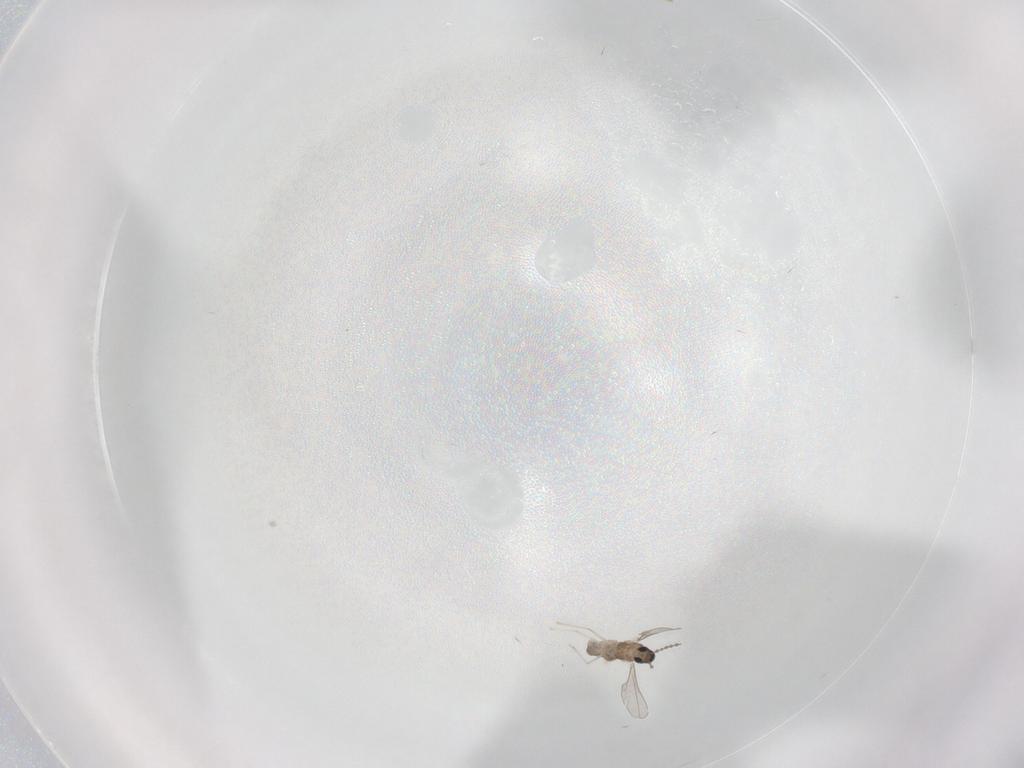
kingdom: Animalia
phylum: Arthropoda
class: Insecta
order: Diptera
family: Cecidomyiidae
